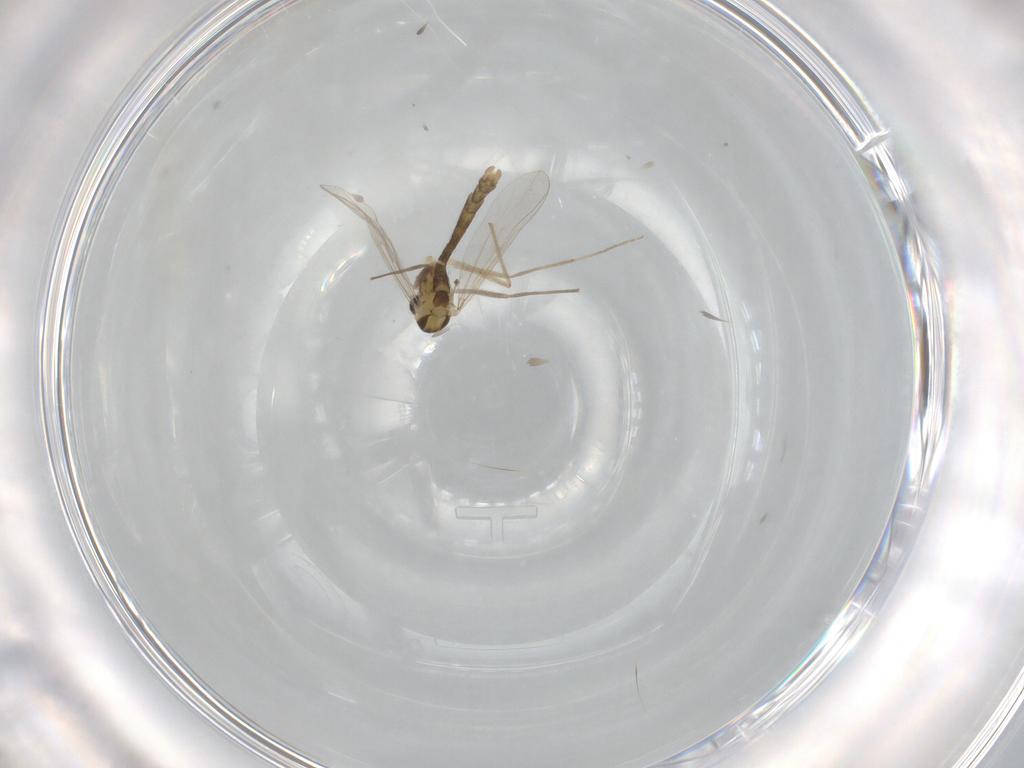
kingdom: Animalia
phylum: Arthropoda
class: Insecta
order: Diptera
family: Chironomidae
